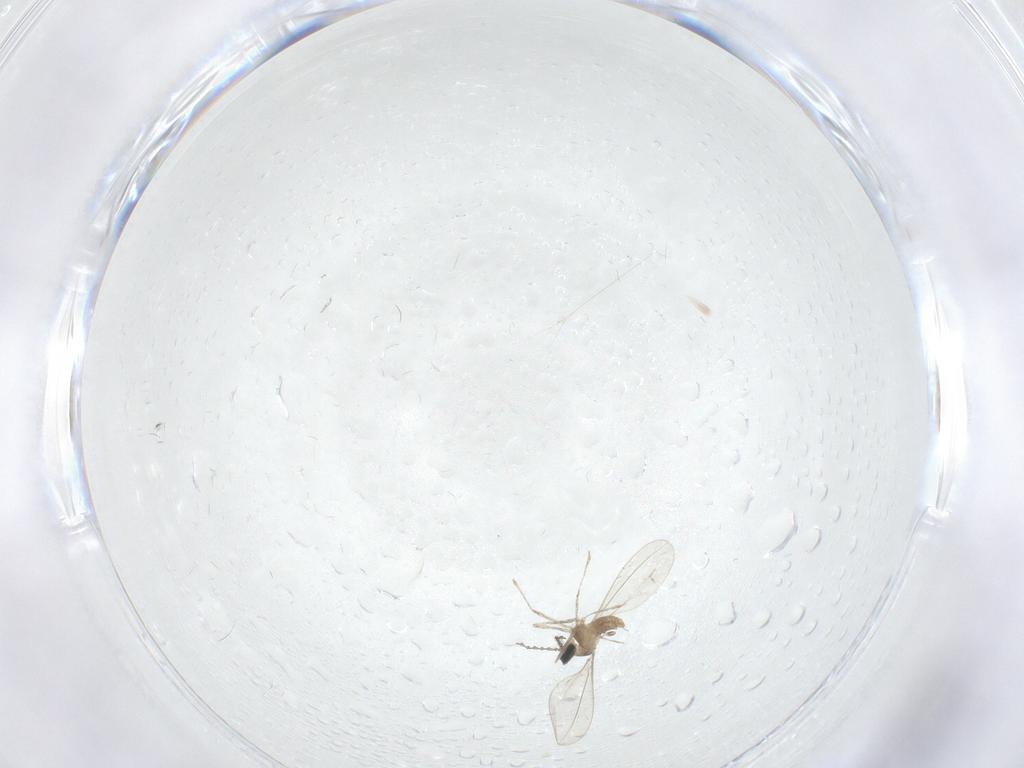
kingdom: Animalia
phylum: Arthropoda
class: Insecta
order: Diptera
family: Cecidomyiidae
